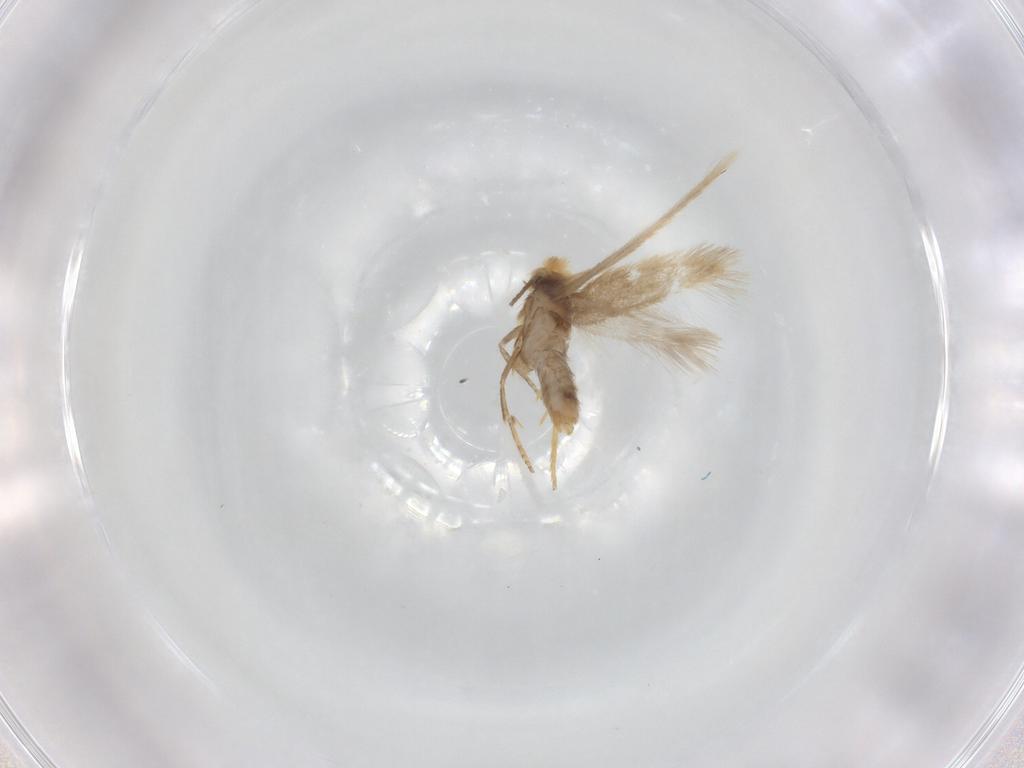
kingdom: Animalia
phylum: Arthropoda
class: Insecta
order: Lepidoptera
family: Nepticulidae
